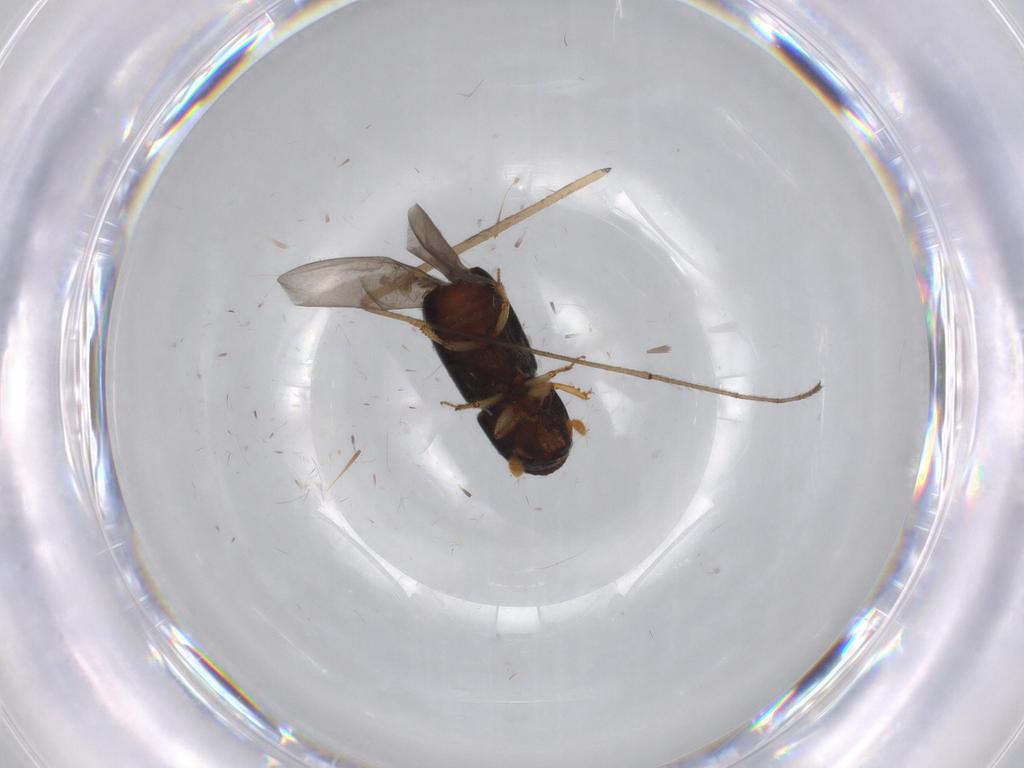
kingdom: Animalia
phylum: Arthropoda
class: Insecta
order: Coleoptera
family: Curculionidae
